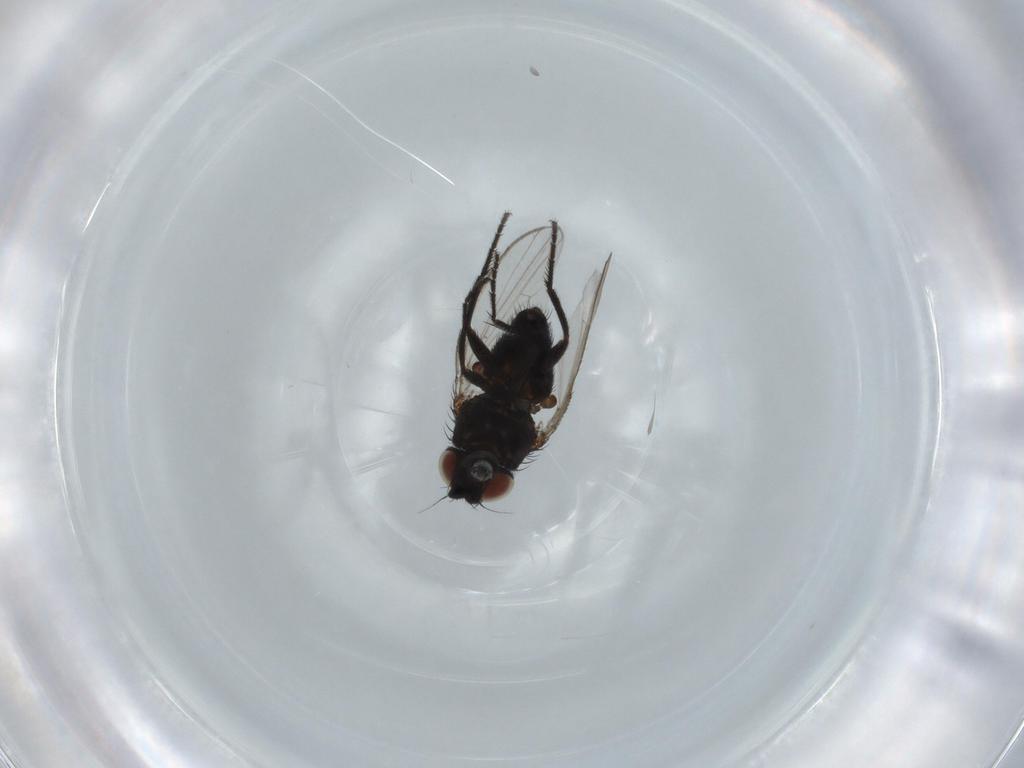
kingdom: Animalia
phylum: Arthropoda
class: Insecta
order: Diptera
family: Milichiidae
